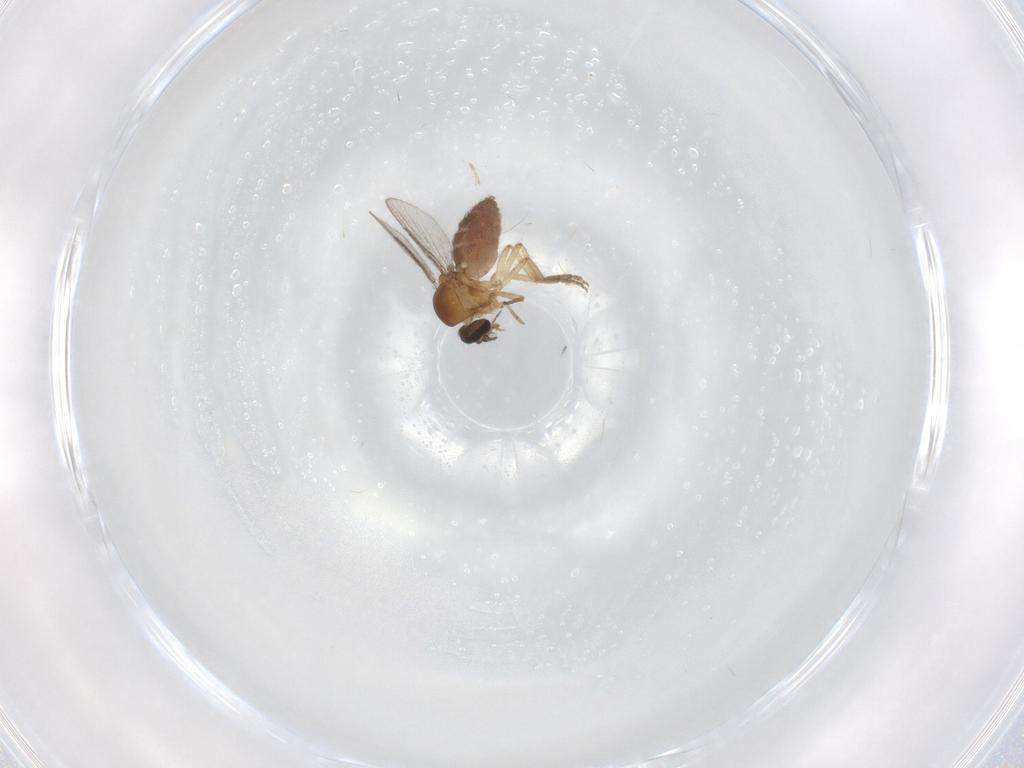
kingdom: Animalia
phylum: Arthropoda
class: Insecta
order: Diptera
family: Chironomidae
